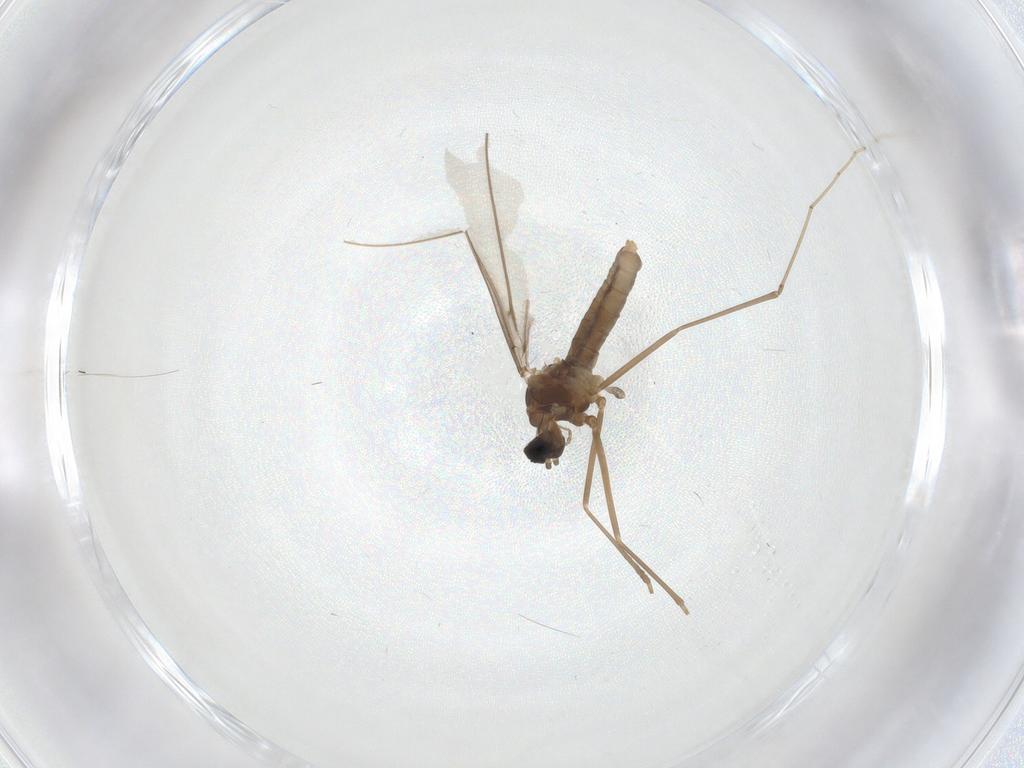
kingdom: Animalia
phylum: Arthropoda
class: Insecta
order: Diptera
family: Cecidomyiidae
